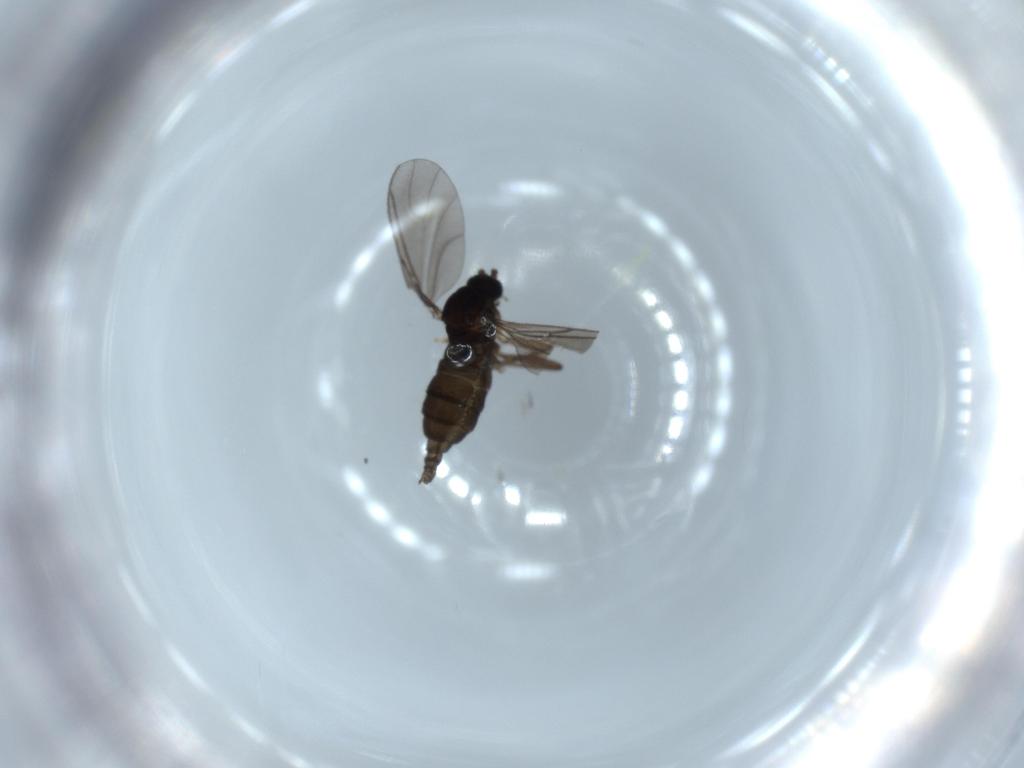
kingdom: Animalia
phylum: Arthropoda
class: Insecta
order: Diptera
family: Sciaridae
